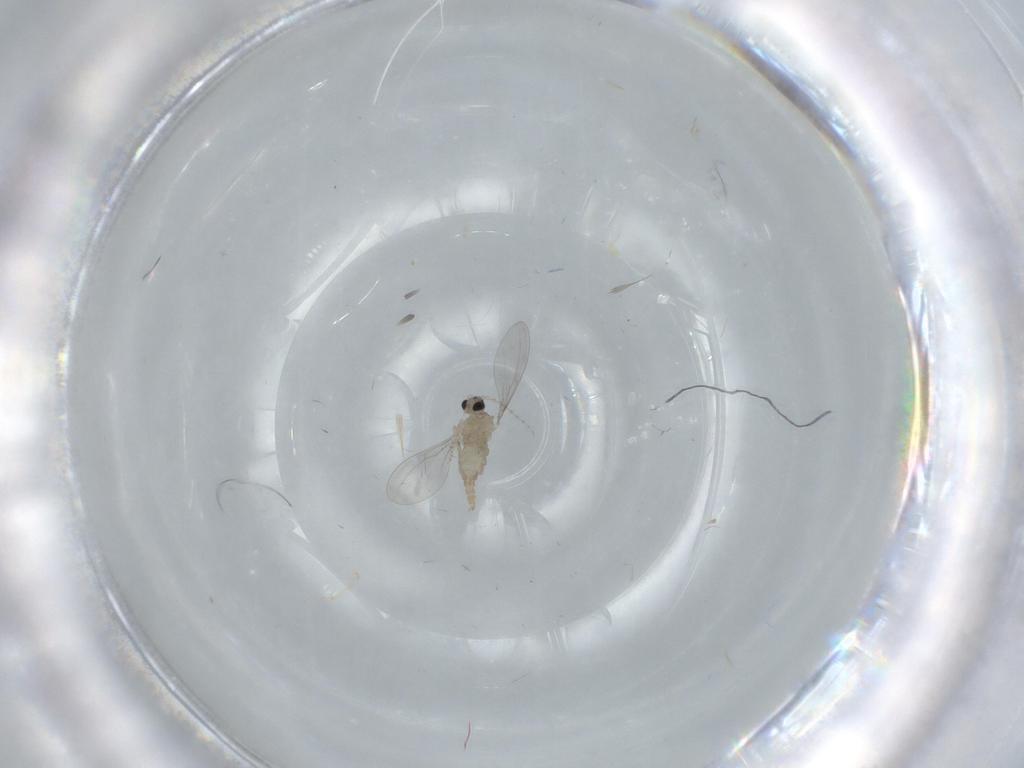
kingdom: Animalia
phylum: Arthropoda
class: Insecta
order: Diptera
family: Cecidomyiidae
